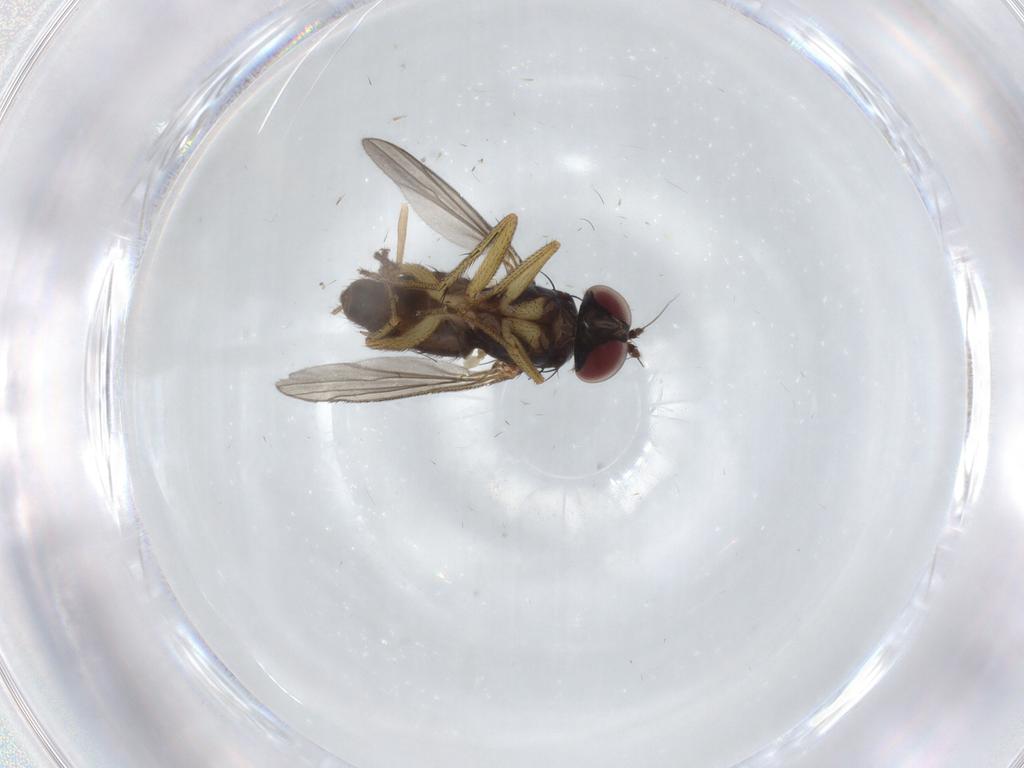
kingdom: Animalia
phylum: Arthropoda
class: Insecta
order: Diptera
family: Dolichopodidae
